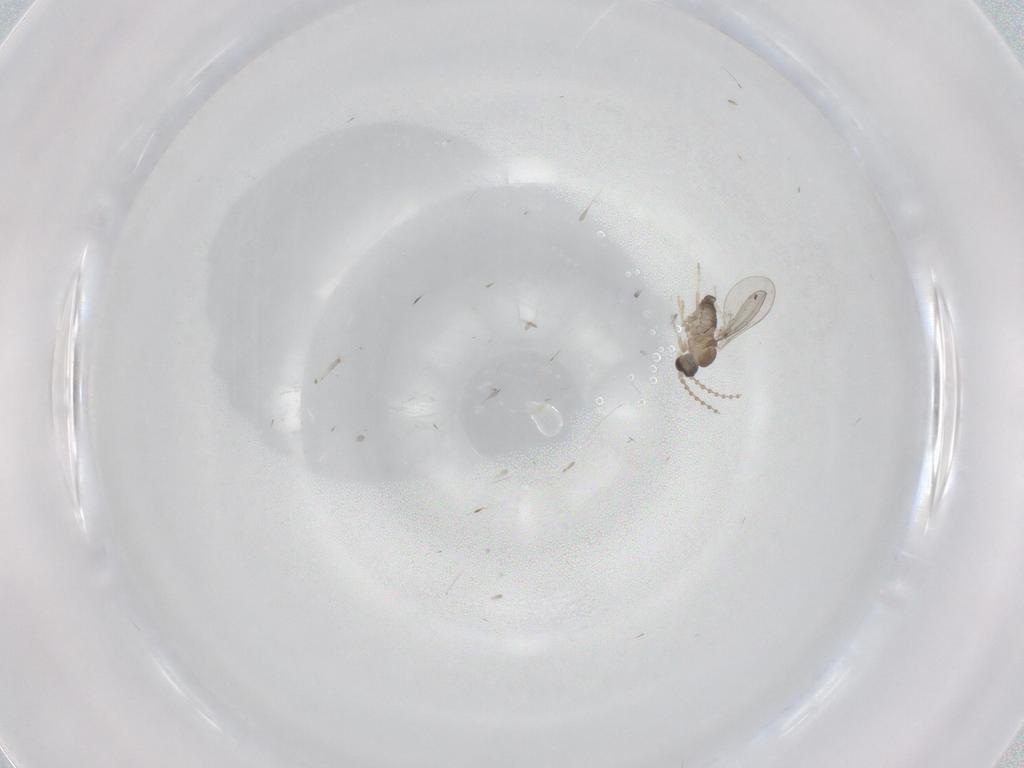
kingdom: Animalia
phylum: Arthropoda
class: Insecta
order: Diptera
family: Cecidomyiidae
